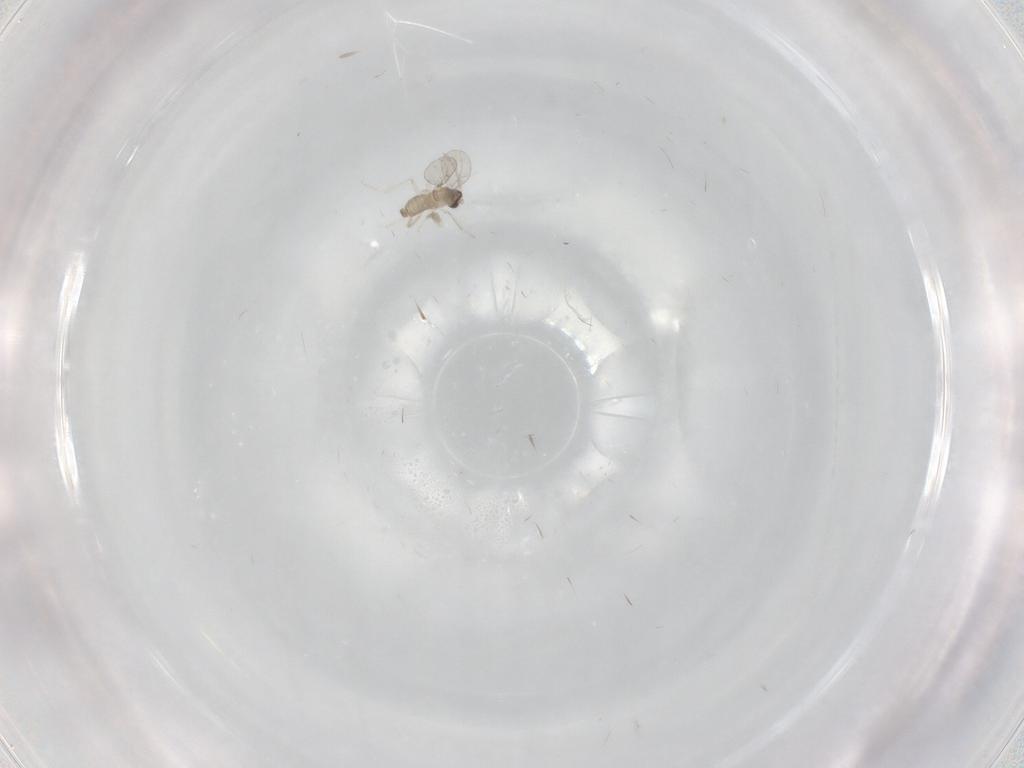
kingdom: Animalia
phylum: Arthropoda
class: Insecta
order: Diptera
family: Cecidomyiidae
